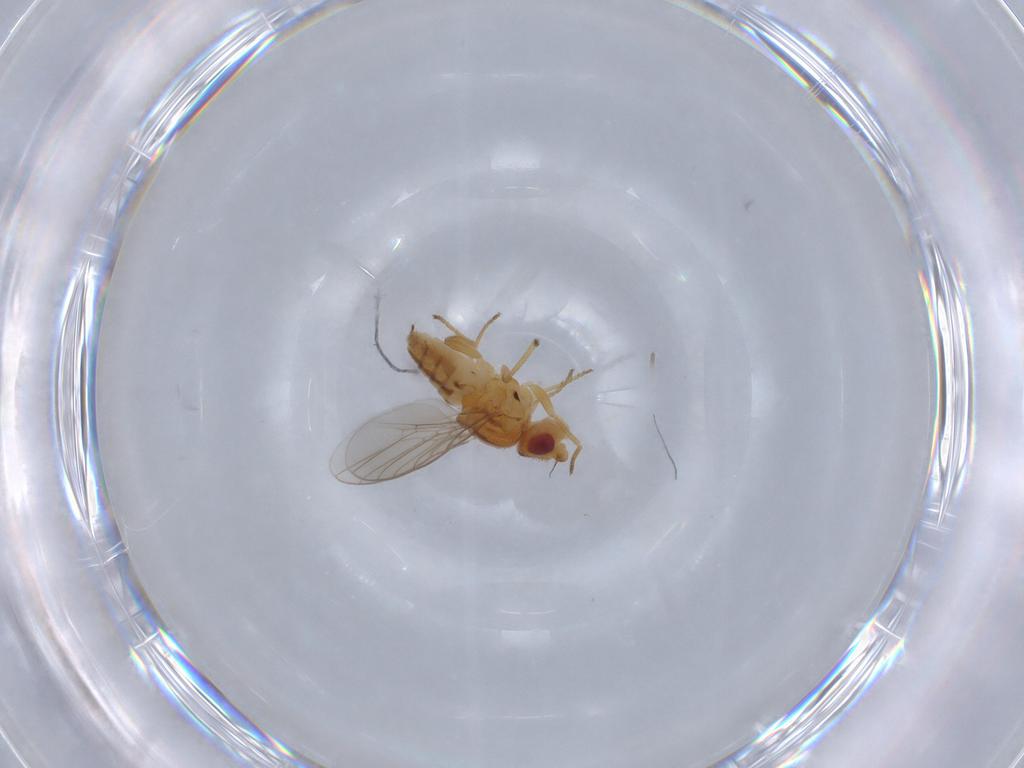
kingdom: Animalia
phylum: Arthropoda
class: Insecta
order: Diptera
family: Chloropidae
